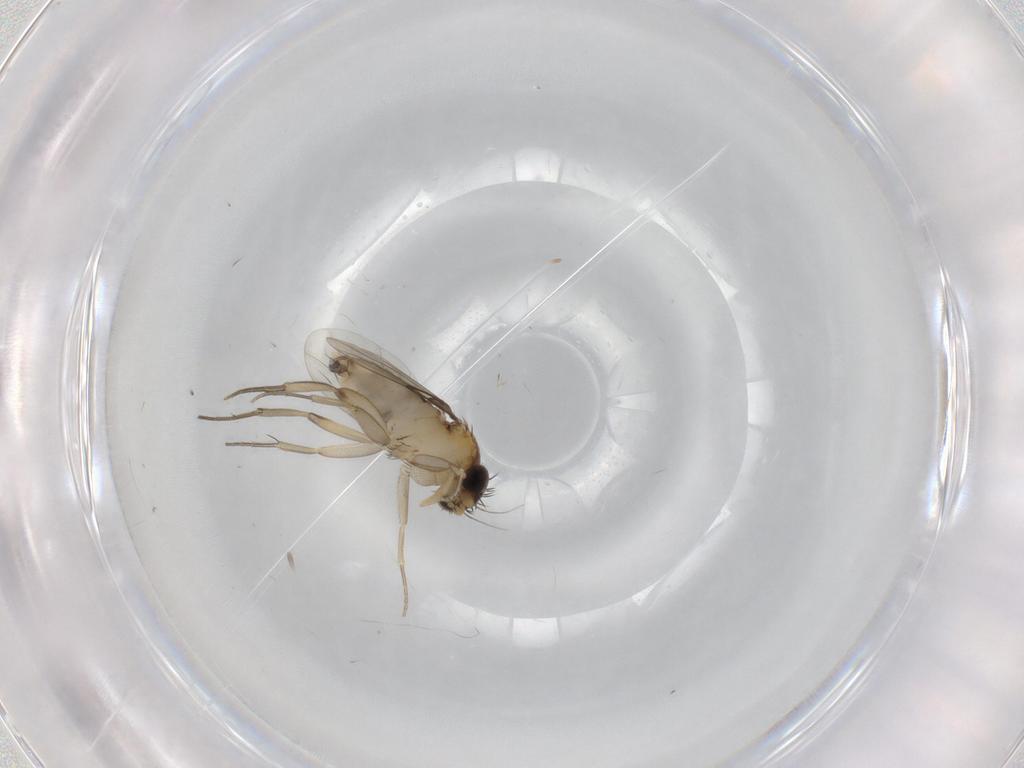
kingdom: Animalia
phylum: Arthropoda
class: Insecta
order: Diptera
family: Phoridae
